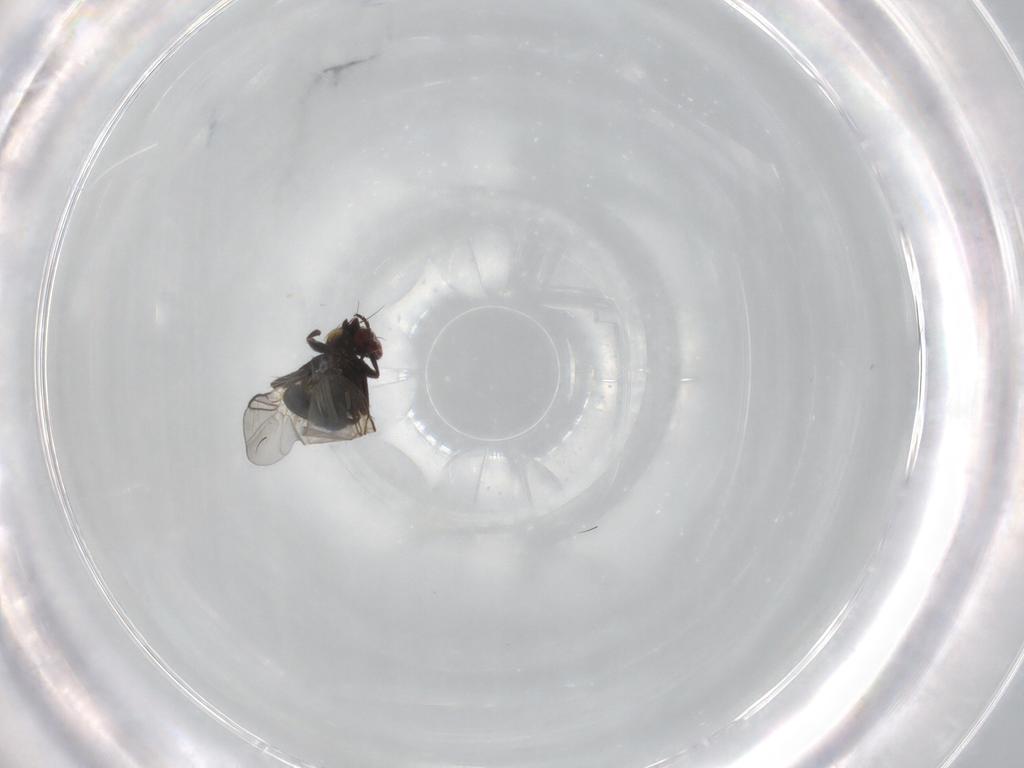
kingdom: Animalia
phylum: Arthropoda
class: Insecta
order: Diptera
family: Agromyzidae
